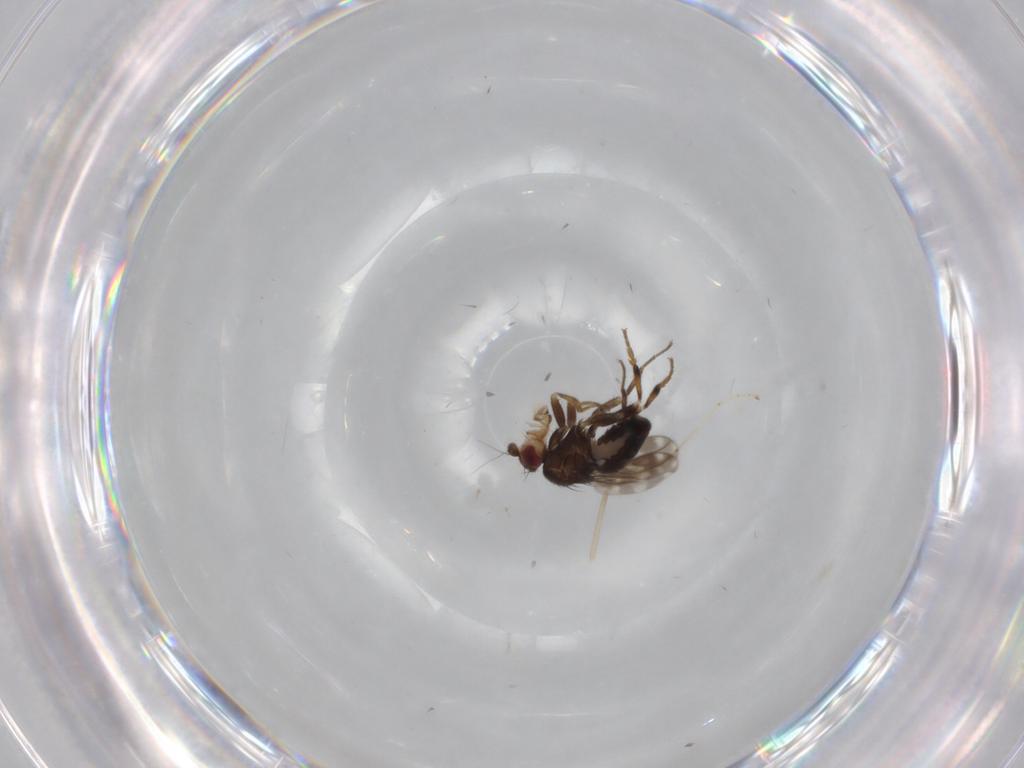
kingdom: Animalia
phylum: Arthropoda
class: Insecta
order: Diptera
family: Sphaeroceridae
